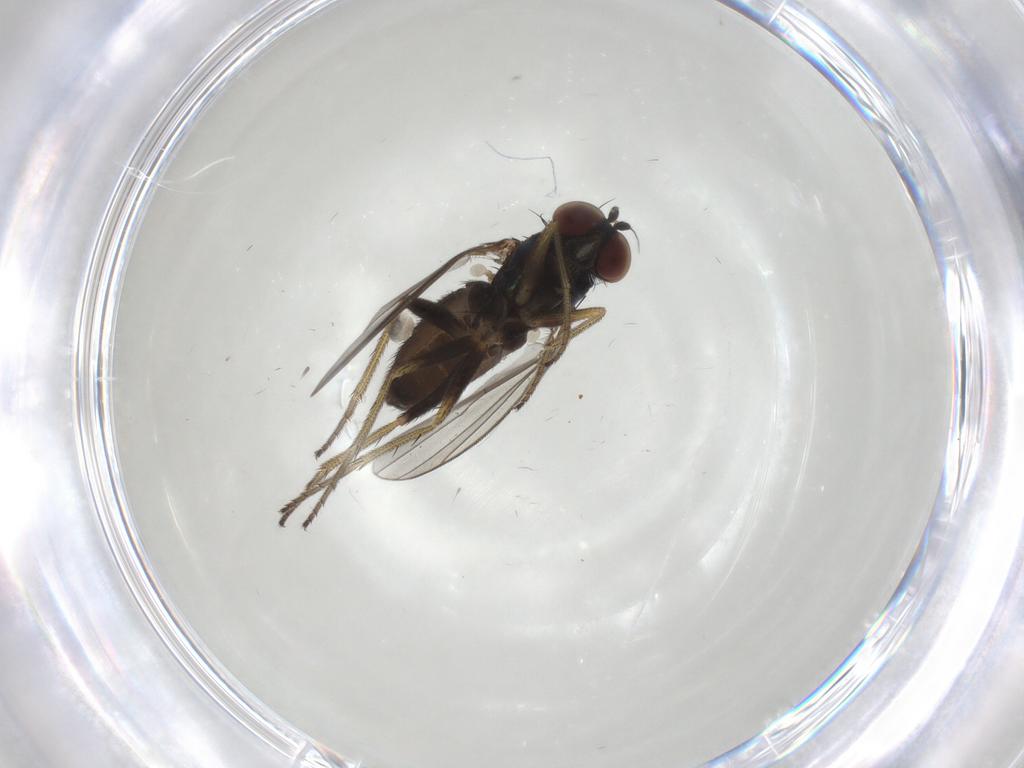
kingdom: Animalia
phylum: Arthropoda
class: Insecta
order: Diptera
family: Dolichopodidae
